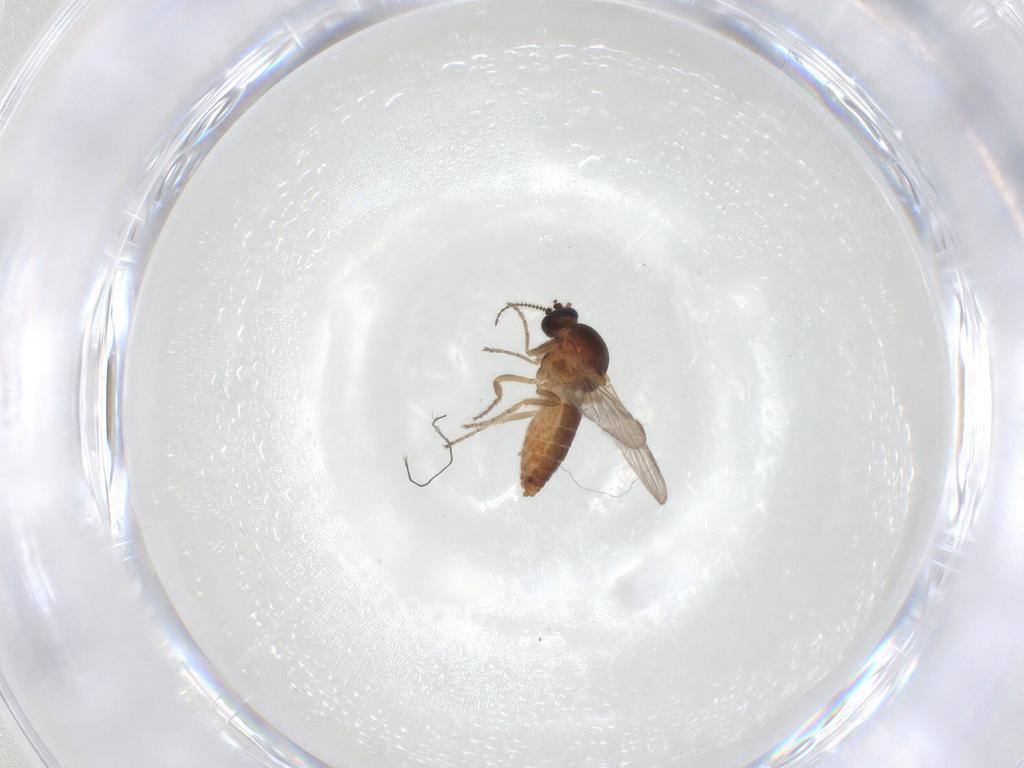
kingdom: Animalia
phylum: Arthropoda
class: Insecta
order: Diptera
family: Ceratopogonidae
